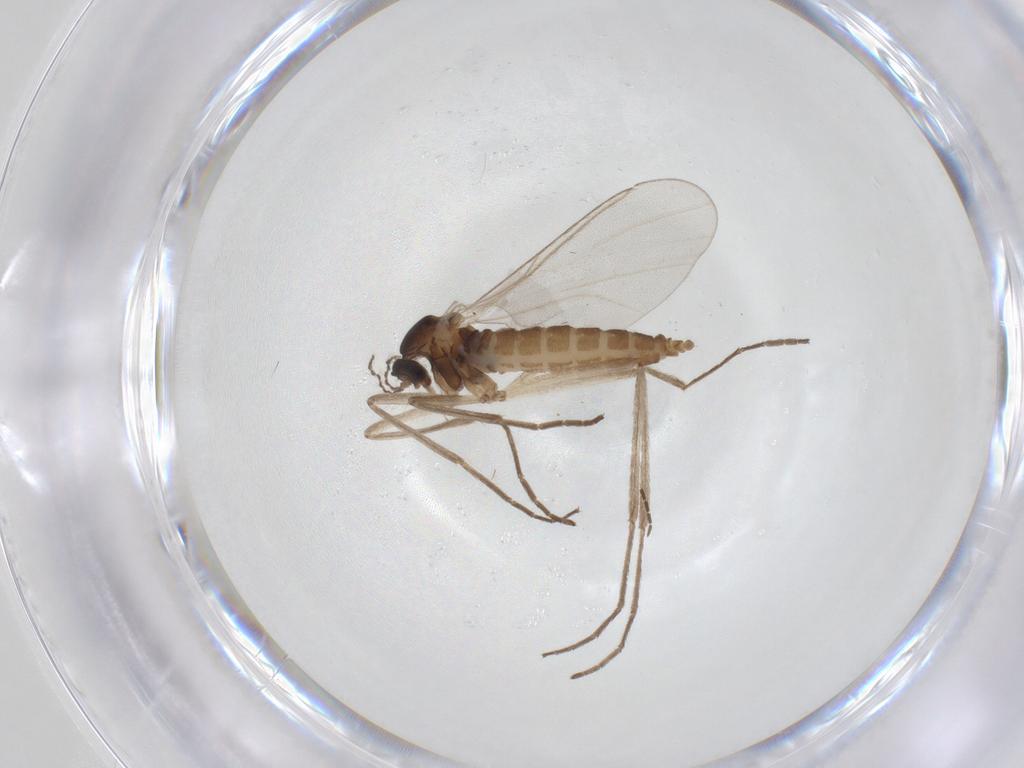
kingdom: Animalia
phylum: Arthropoda
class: Insecta
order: Diptera
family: Cecidomyiidae
